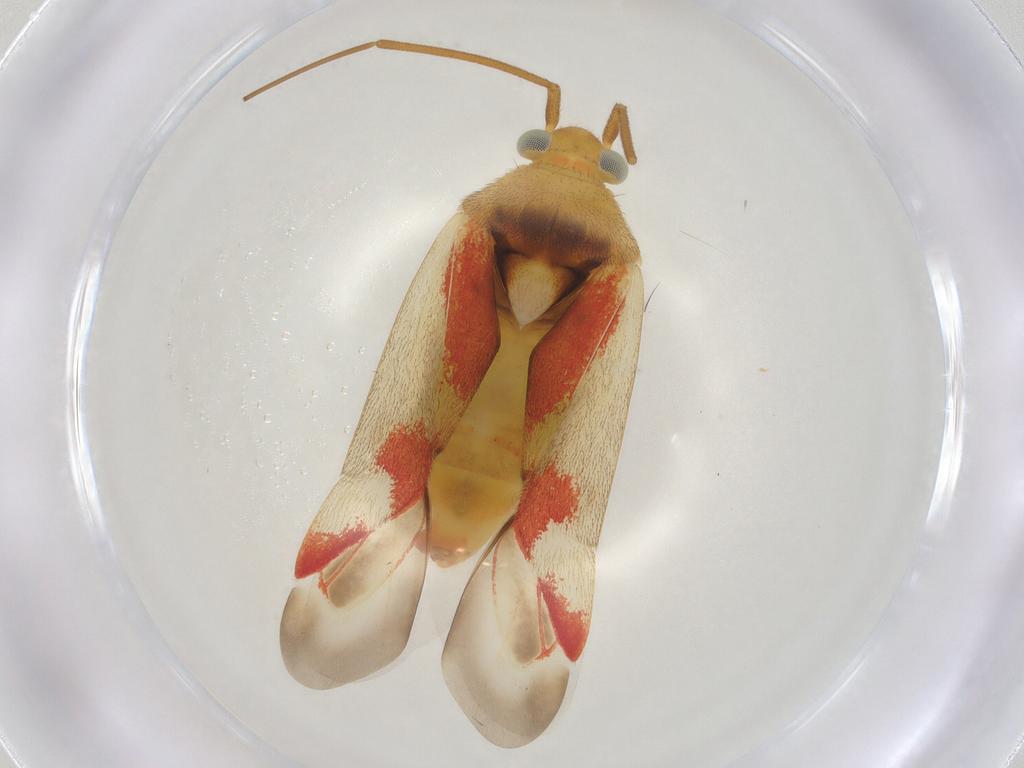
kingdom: Animalia
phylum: Arthropoda
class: Insecta
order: Hemiptera
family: Miridae
